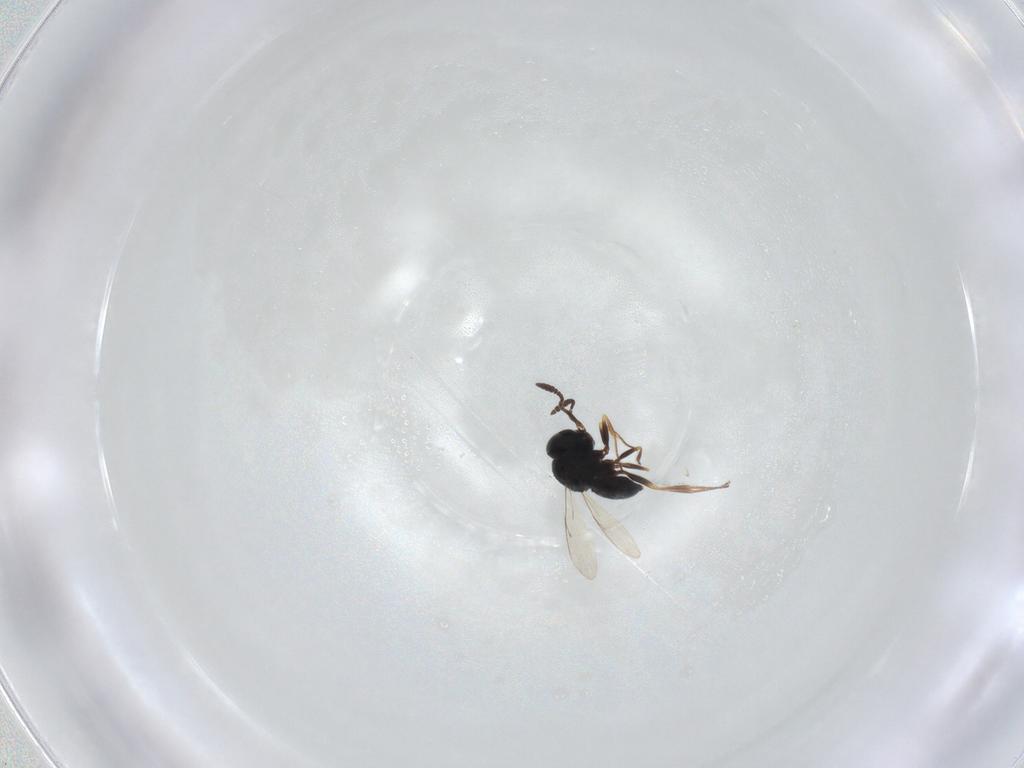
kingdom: Animalia
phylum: Arthropoda
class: Insecta
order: Hymenoptera
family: Scelionidae
